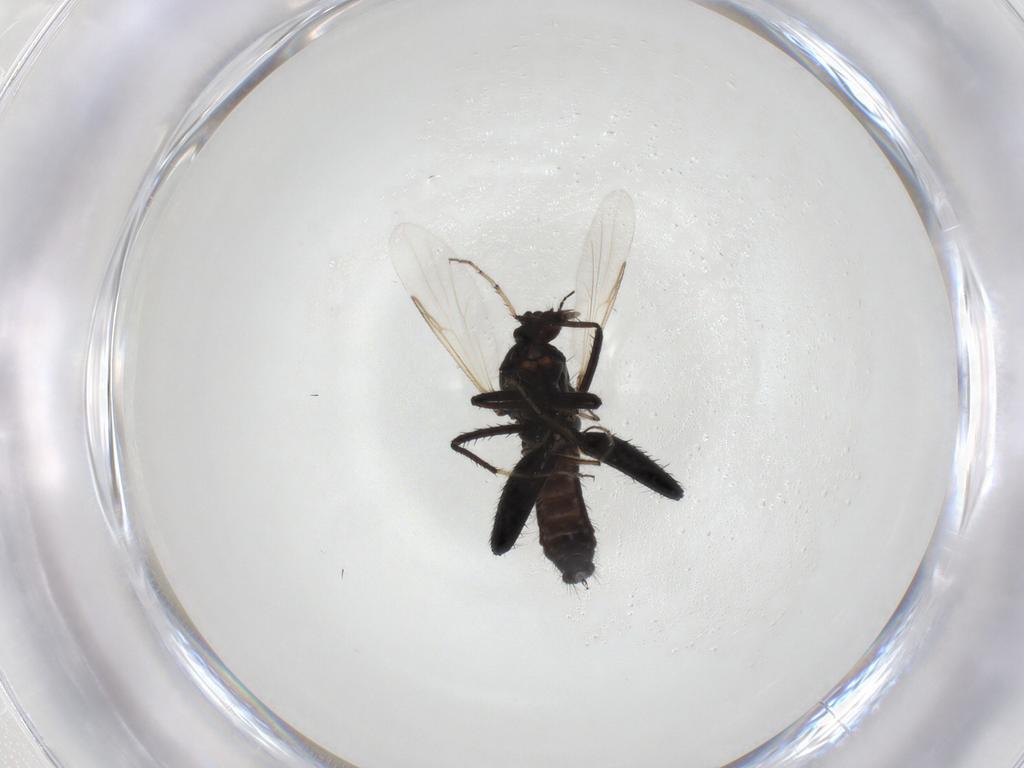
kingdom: Animalia
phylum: Arthropoda
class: Insecta
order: Diptera
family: Ceratopogonidae
